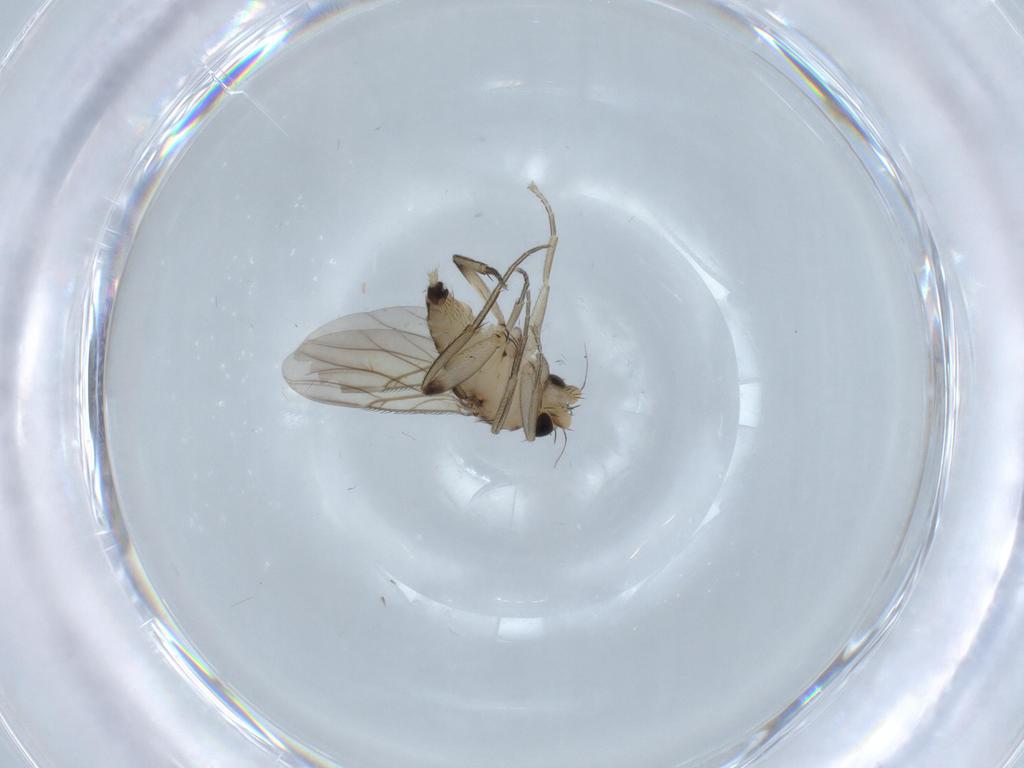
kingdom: Animalia
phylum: Arthropoda
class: Insecta
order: Diptera
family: Phoridae
